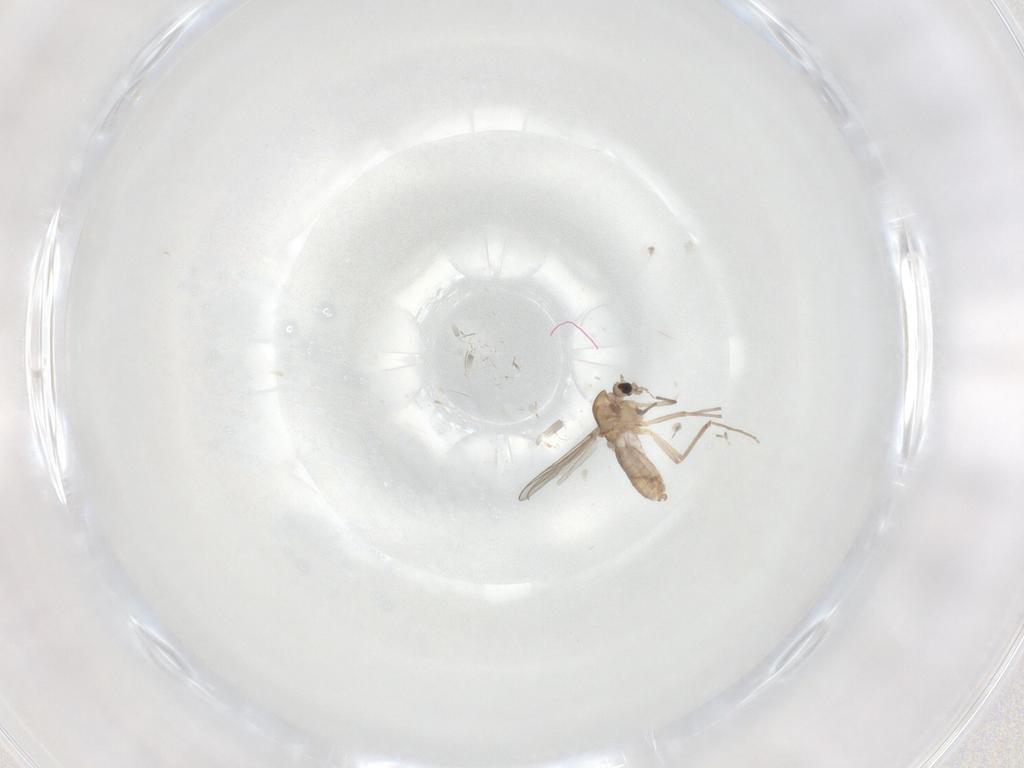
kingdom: Animalia
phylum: Arthropoda
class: Insecta
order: Diptera
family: Chironomidae
